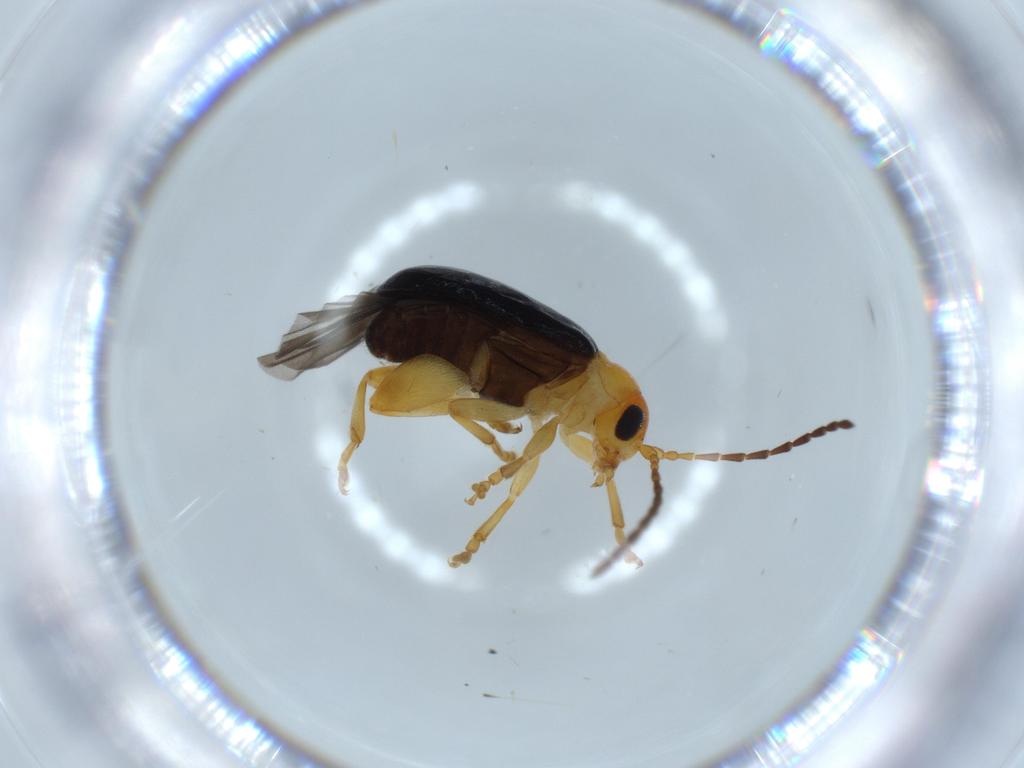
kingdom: Animalia
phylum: Arthropoda
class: Insecta
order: Coleoptera
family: Chrysomelidae
